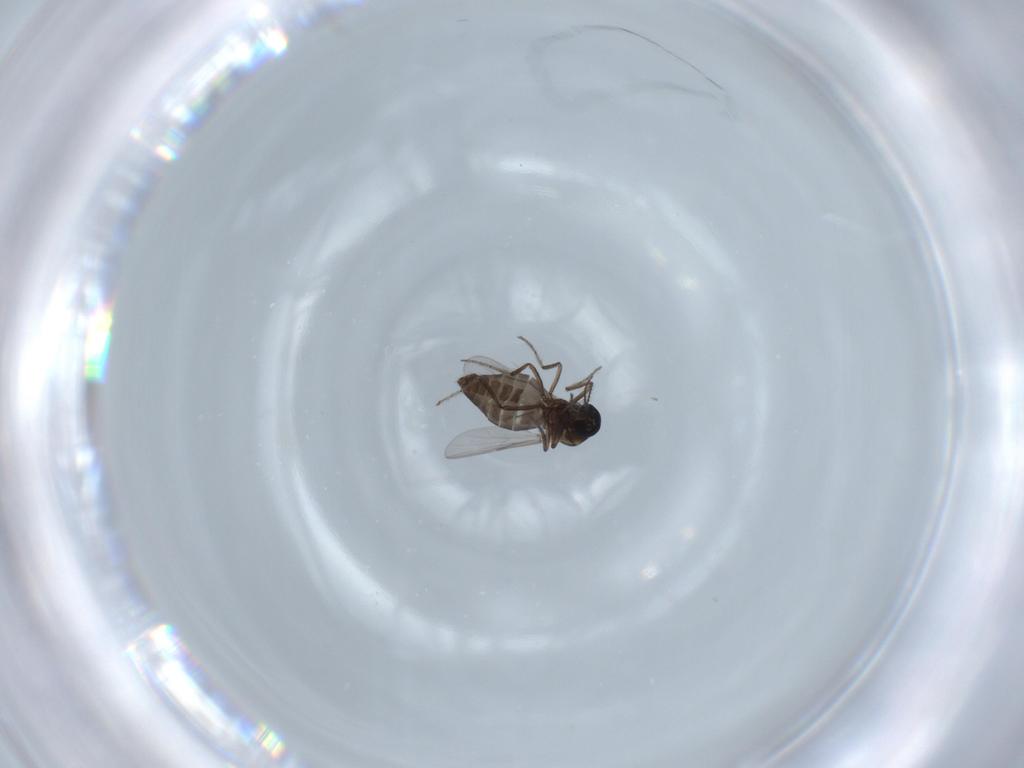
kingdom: Animalia
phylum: Arthropoda
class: Insecta
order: Diptera
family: Ceratopogonidae
